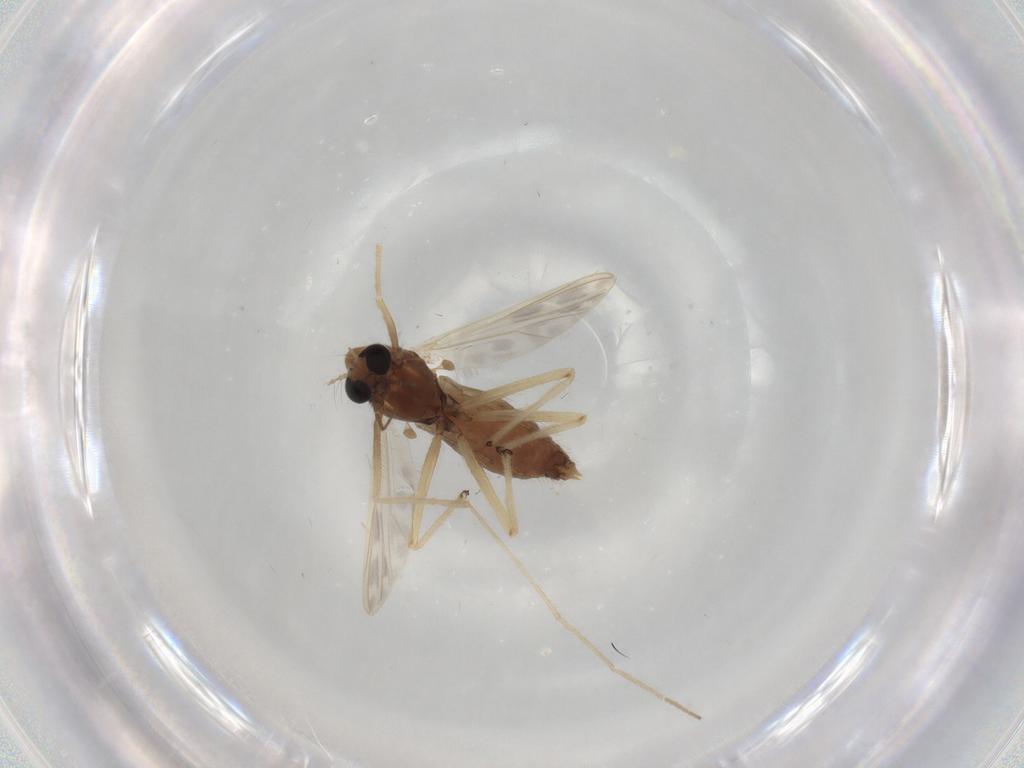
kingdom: Animalia
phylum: Arthropoda
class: Insecta
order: Diptera
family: Chironomidae
